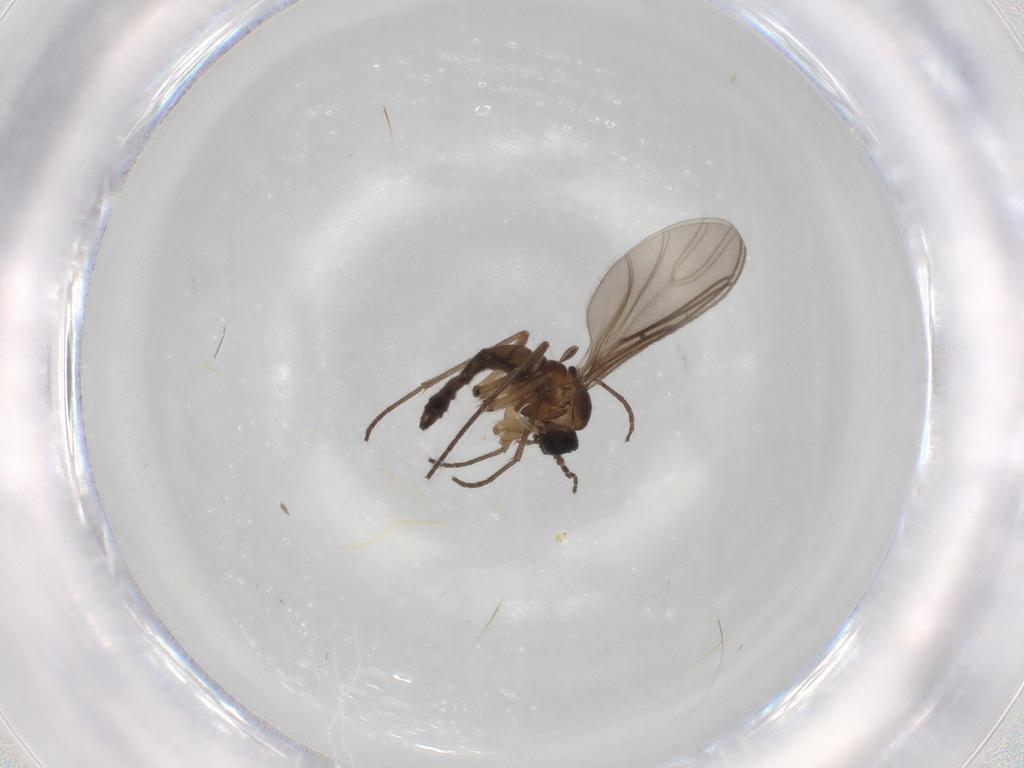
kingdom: Animalia
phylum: Arthropoda
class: Insecta
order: Diptera
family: Sciaridae
